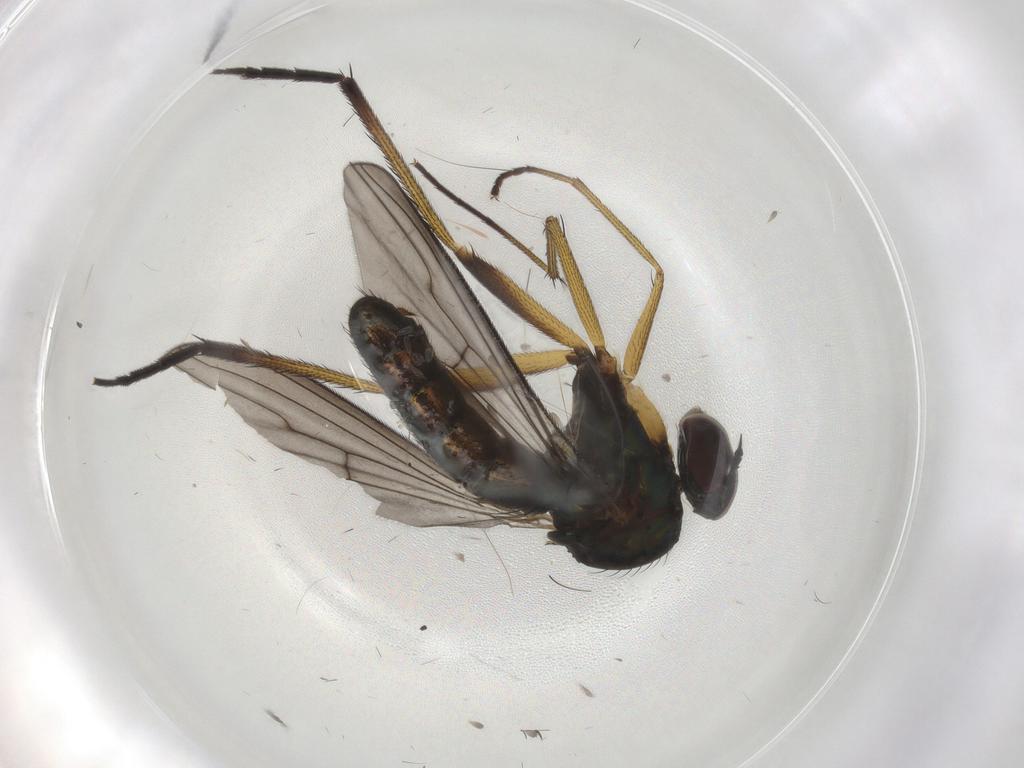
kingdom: Animalia
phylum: Arthropoda
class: Insecta
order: Diptera
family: Dolichopodidae
